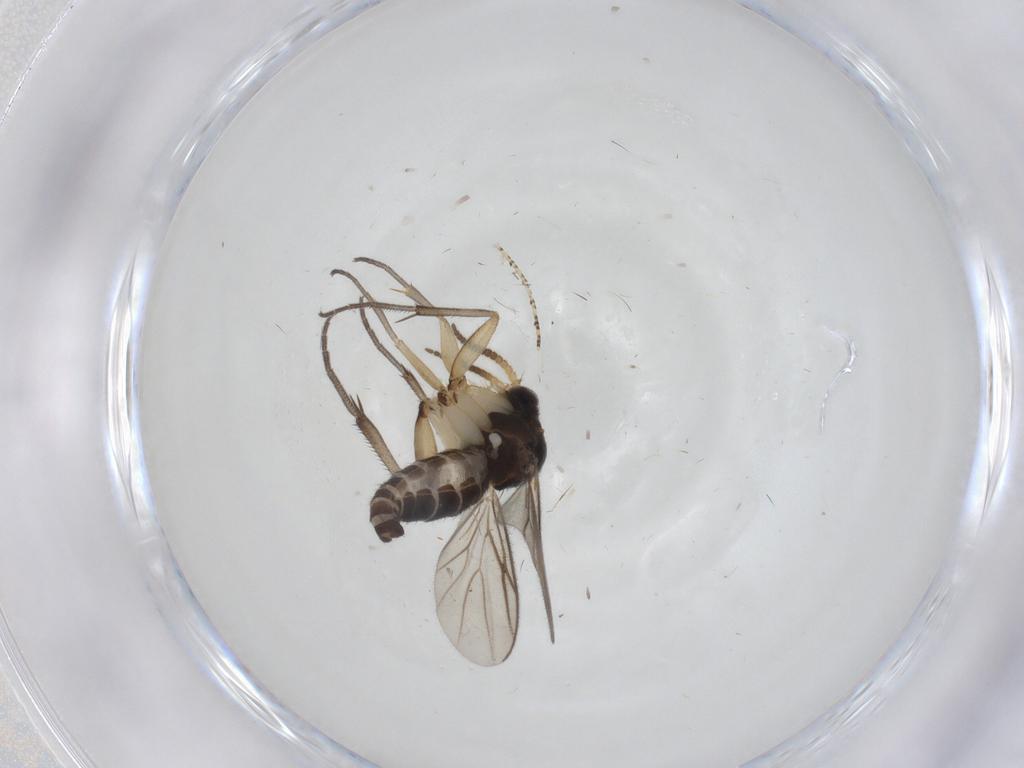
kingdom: Animalia
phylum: Arthropoda
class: Insecta
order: Diptera
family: Mycetophilidae
